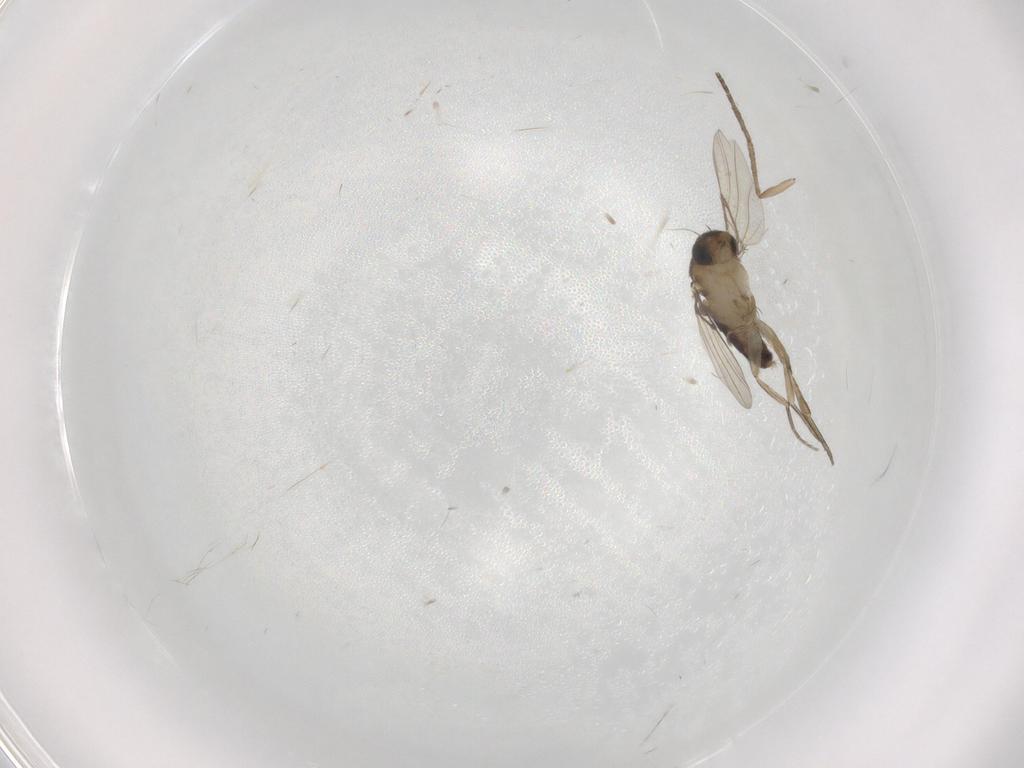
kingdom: Animalia
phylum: Arthropoda
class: Insecta
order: Diptera
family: Phoridae
